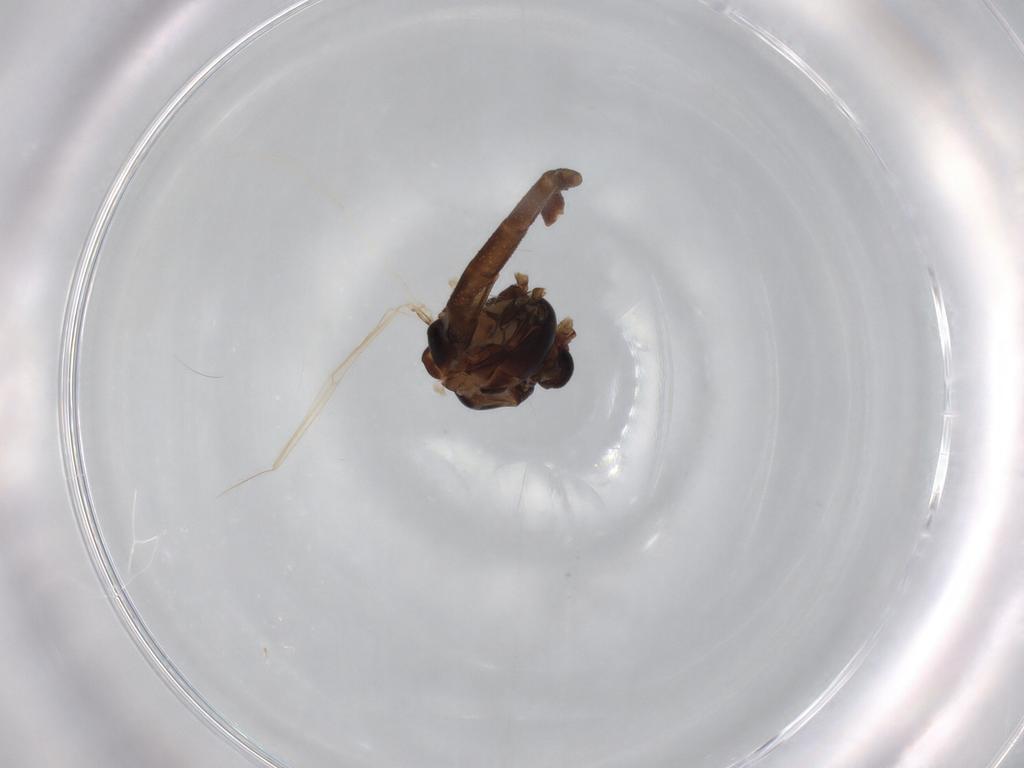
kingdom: Animalia
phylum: Arthropoda
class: Insecta
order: Diptera
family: Chironomidae
